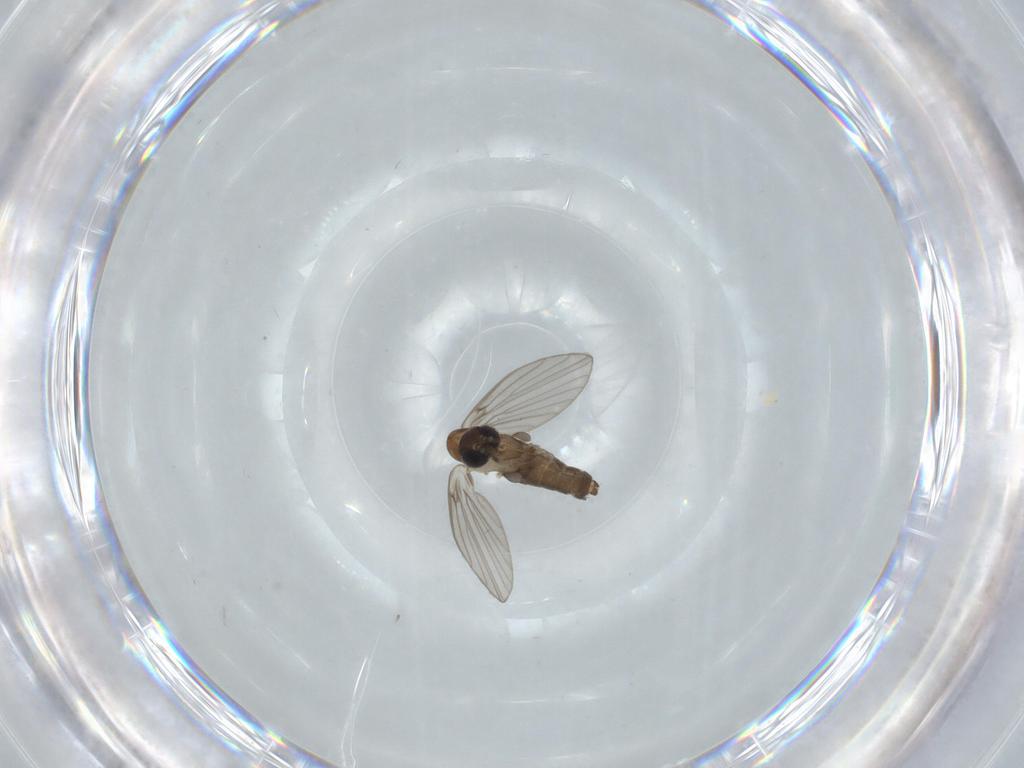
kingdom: Animalia
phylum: Arthropoda
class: Insecta
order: Diptera
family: Psychodidae
